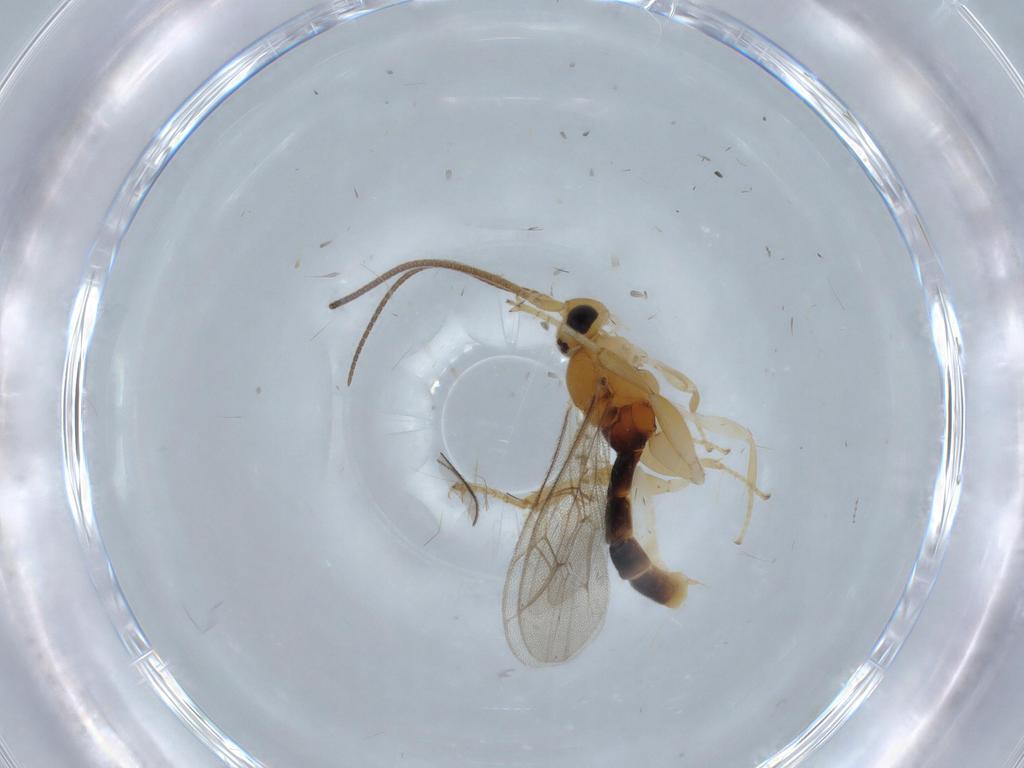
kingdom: Animalia
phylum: Arthropoda
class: Insecta
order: Hymenoptera
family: Ichneumonidae
